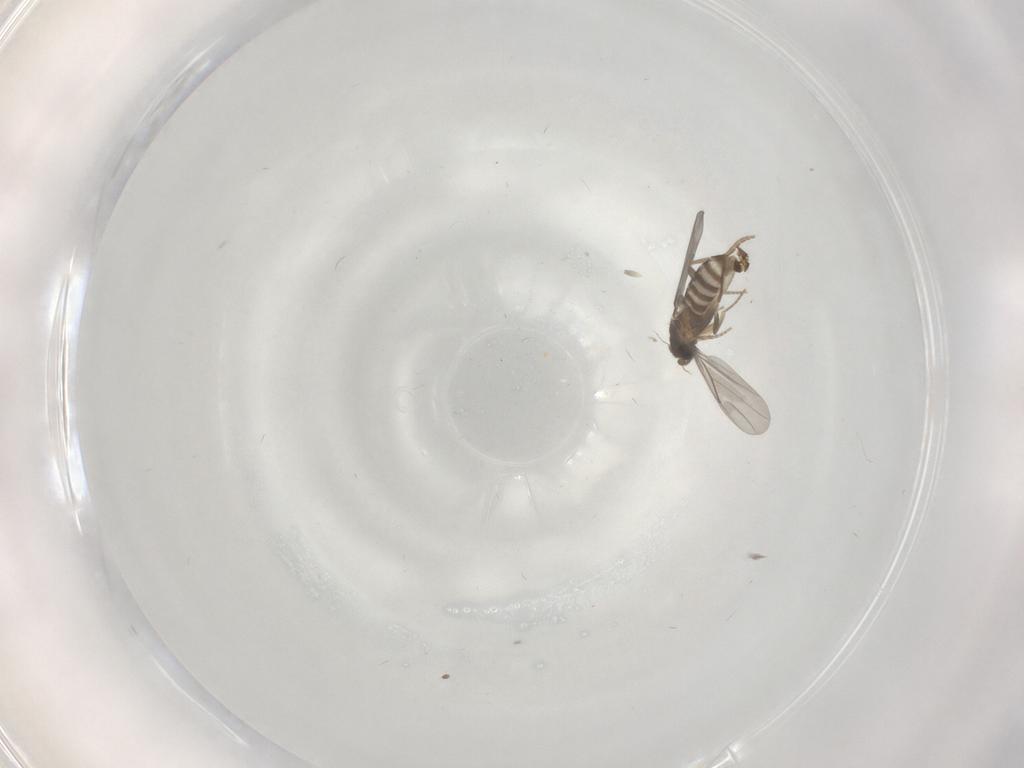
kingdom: Animalia
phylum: Arthropoda
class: Insecta
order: Diptera
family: Ceratopogonidae
